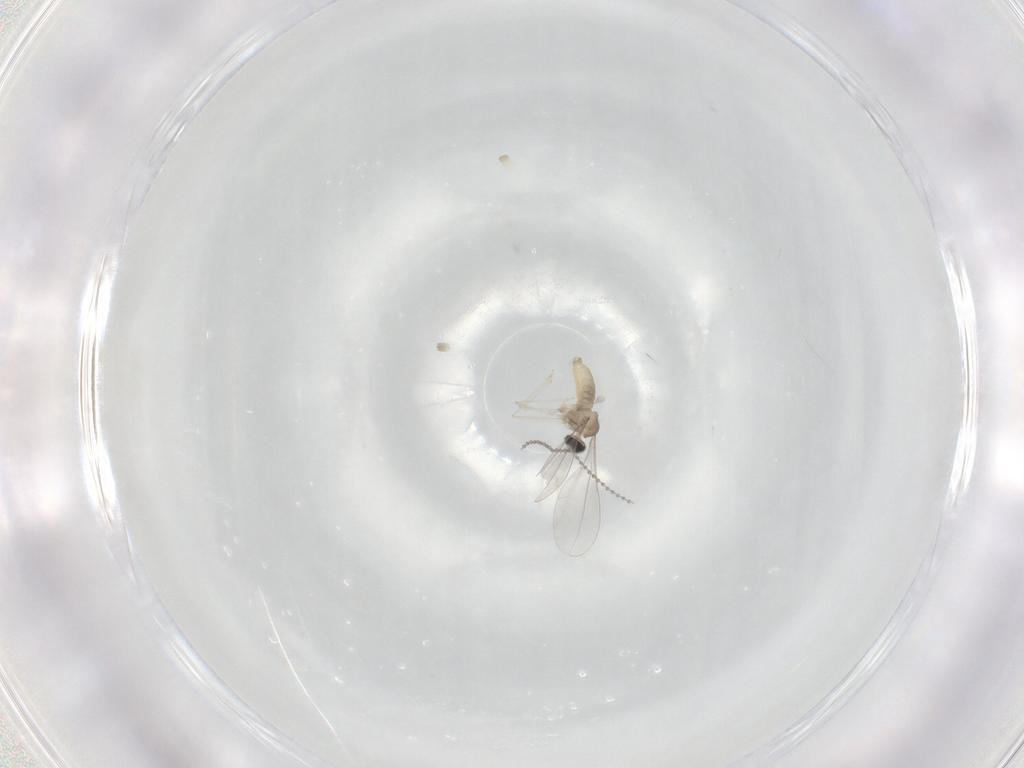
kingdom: Animalia
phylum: Arthropoda
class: Insecta
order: Diptera
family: Cecidomyiidae
